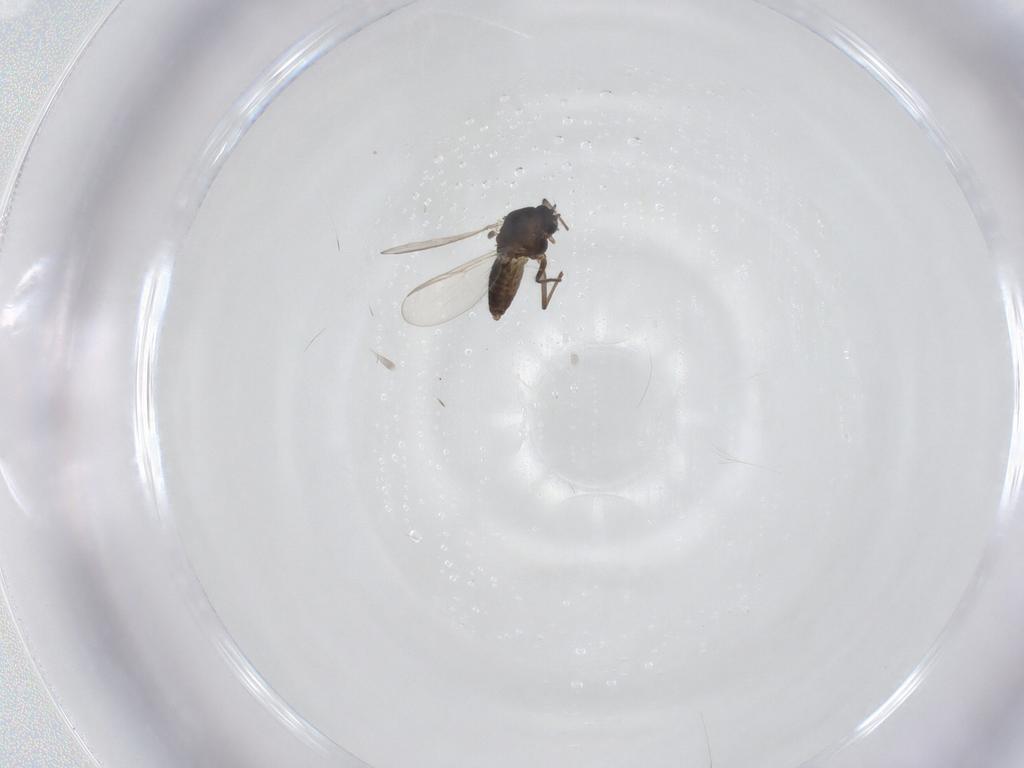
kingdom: Animalia
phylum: Arthropoda
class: Insecta
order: Diptera
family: Chironomidae
